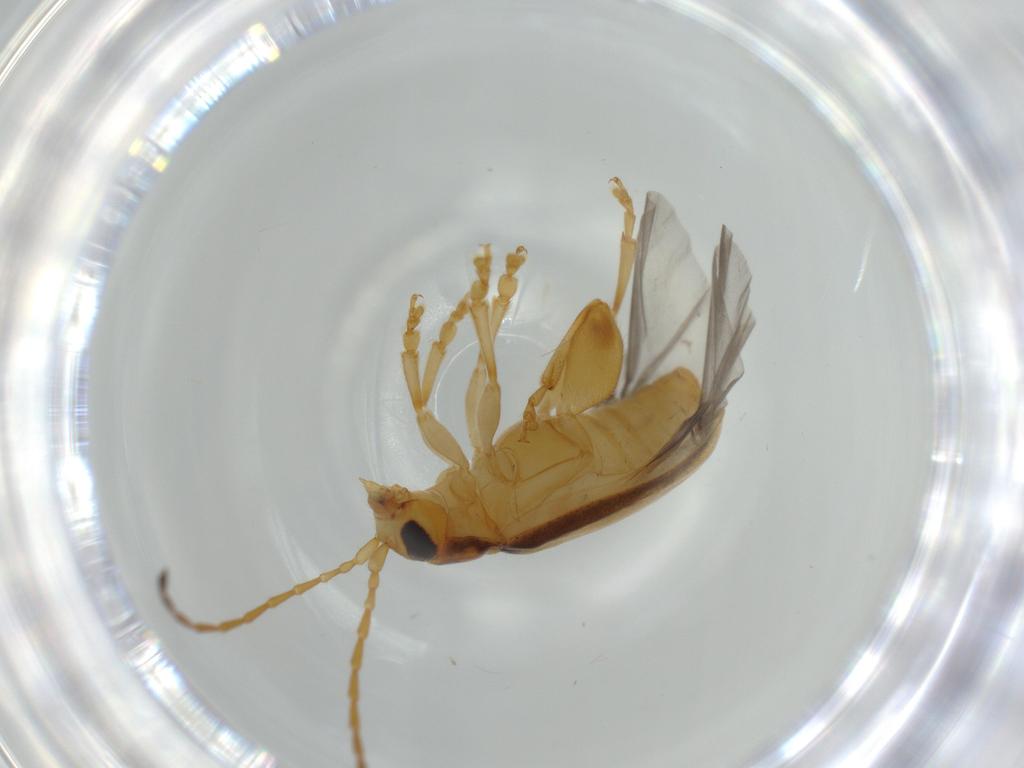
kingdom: Animalia
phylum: Arthropoda
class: Insecta
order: Coleoptera
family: Chrysomelidae
